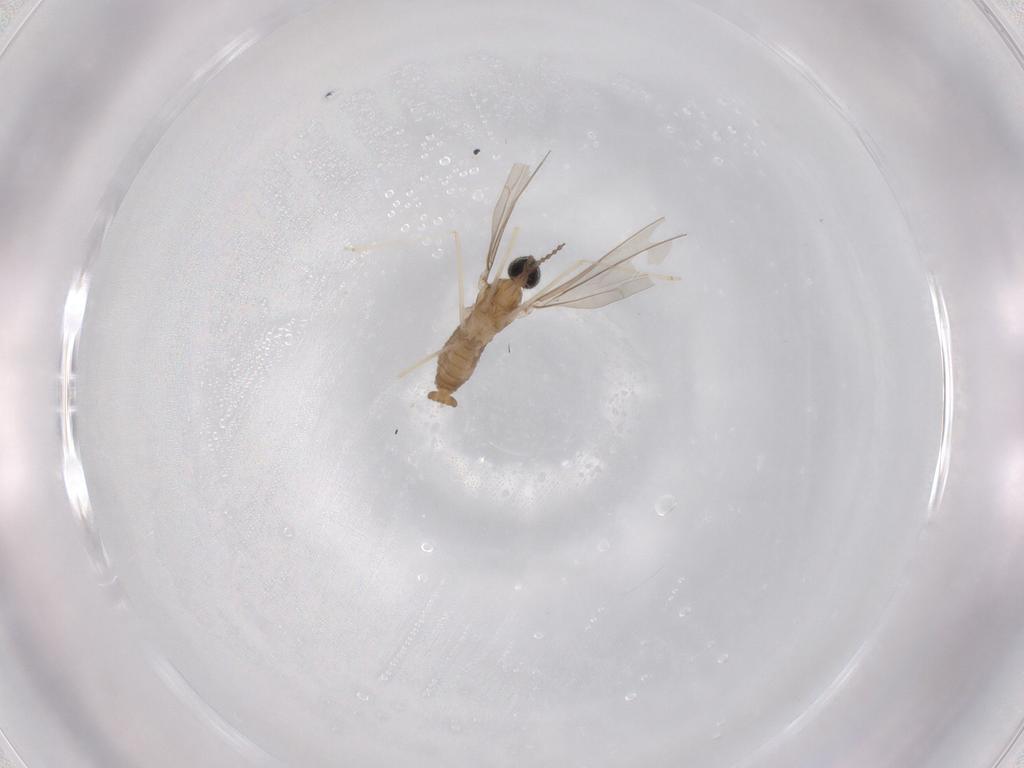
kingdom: Animalia
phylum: Arthropoda
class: Insecta
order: Diptera
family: Cecidomyiidae
